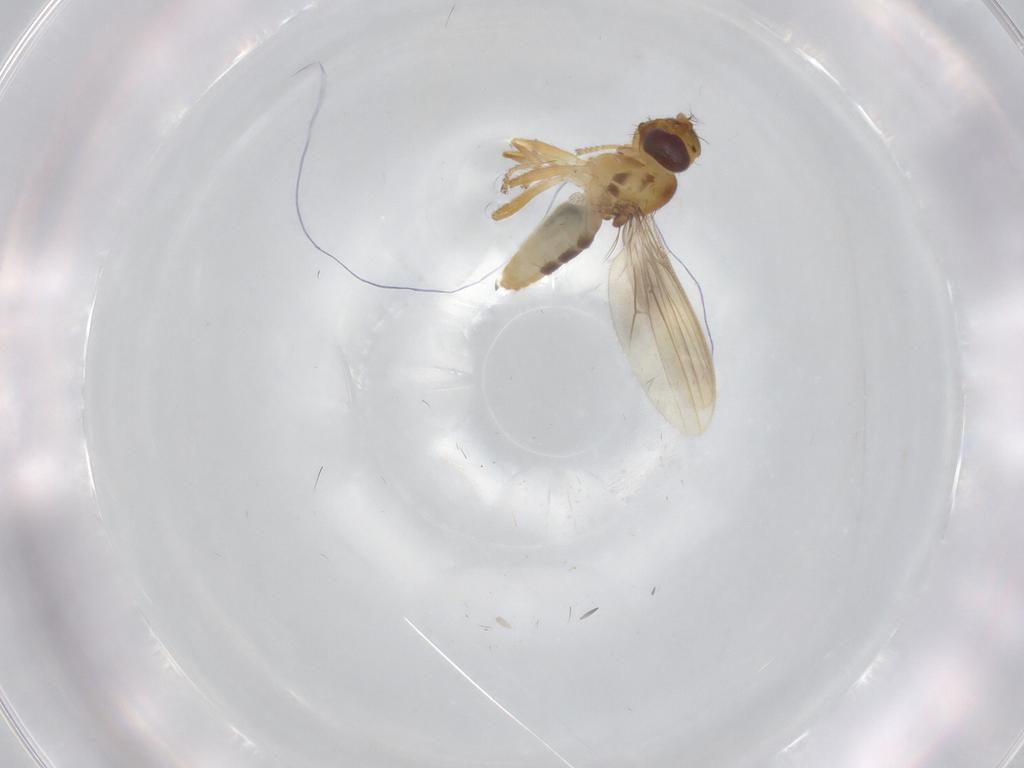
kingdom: Animalia
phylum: Arthropoda
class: Insecta
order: Diptera
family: Periscelididae
